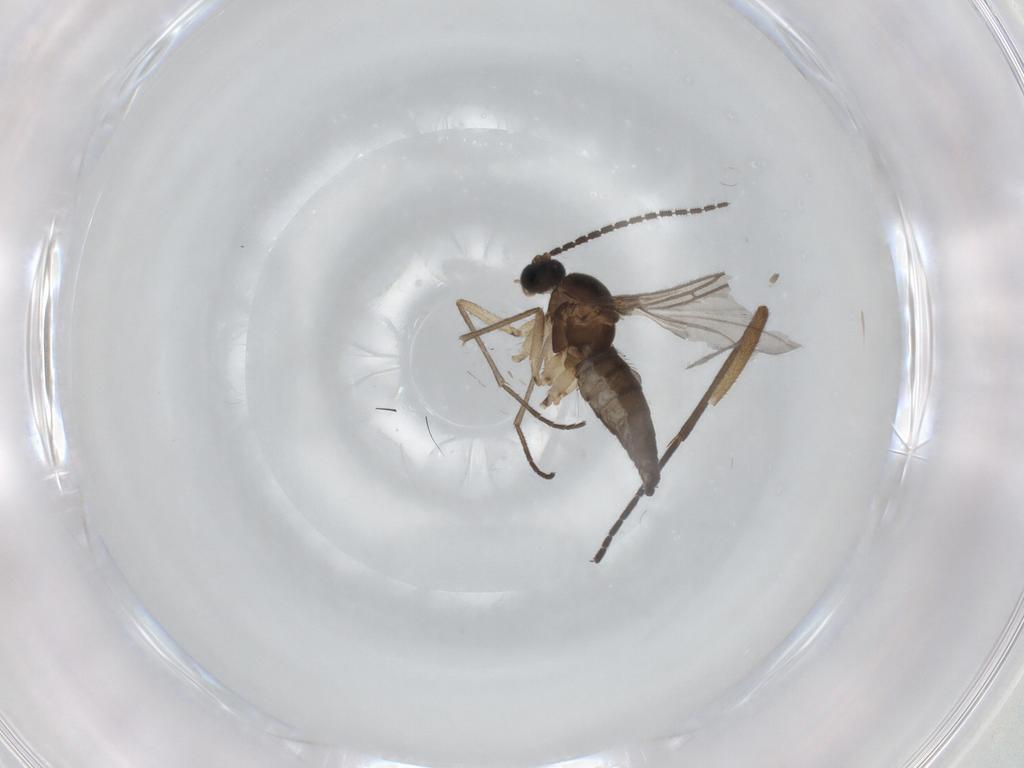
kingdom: Animalia
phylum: Arthropoda
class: Insecta
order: Diptera
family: Sciaridae
